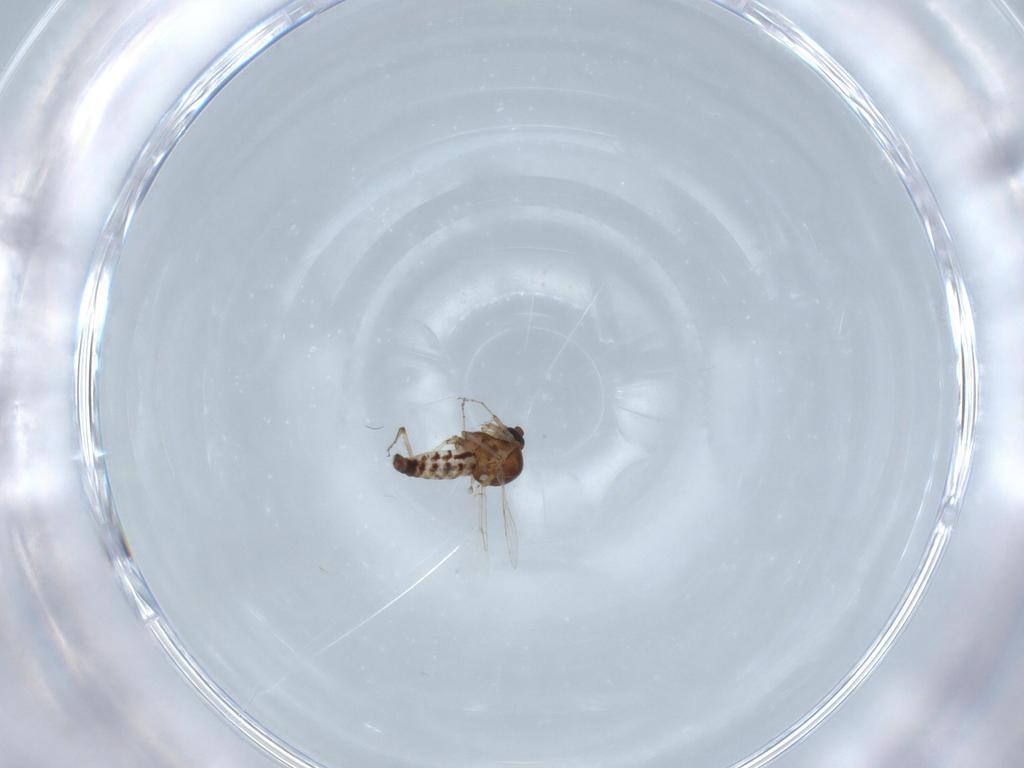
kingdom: Animalia
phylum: Arthropoda
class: Insecta
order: Diptera
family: Ceratopogonidae
